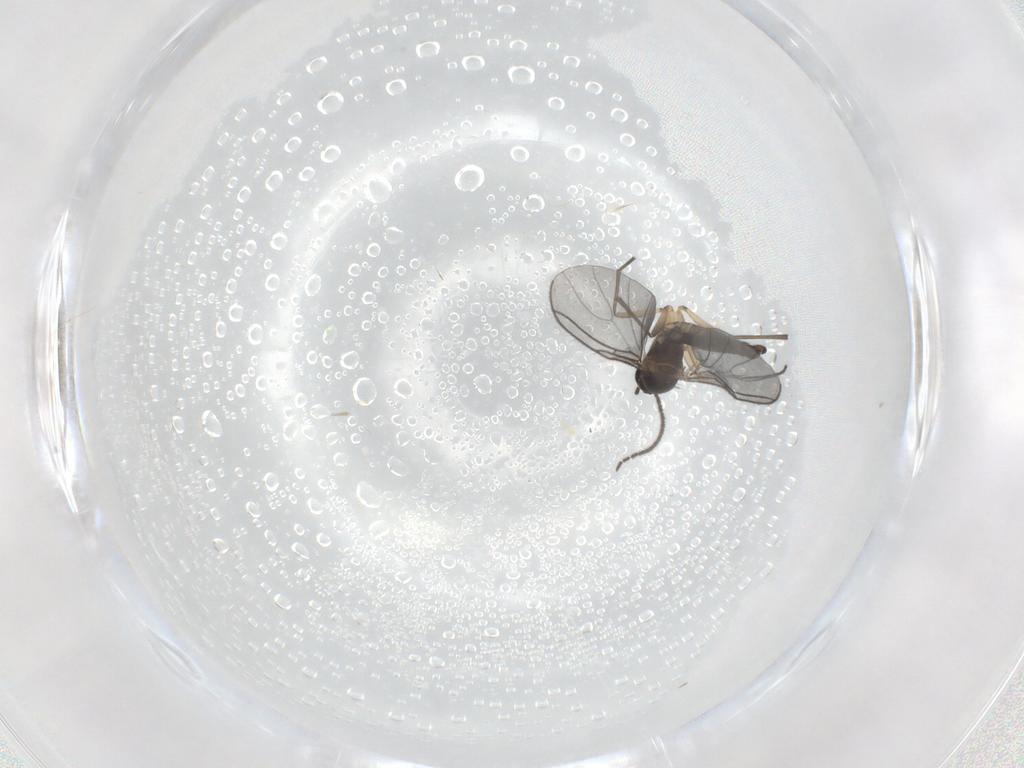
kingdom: Animalia
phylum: Arthropoda
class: Insecta
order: Diptera
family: Sciaridae
